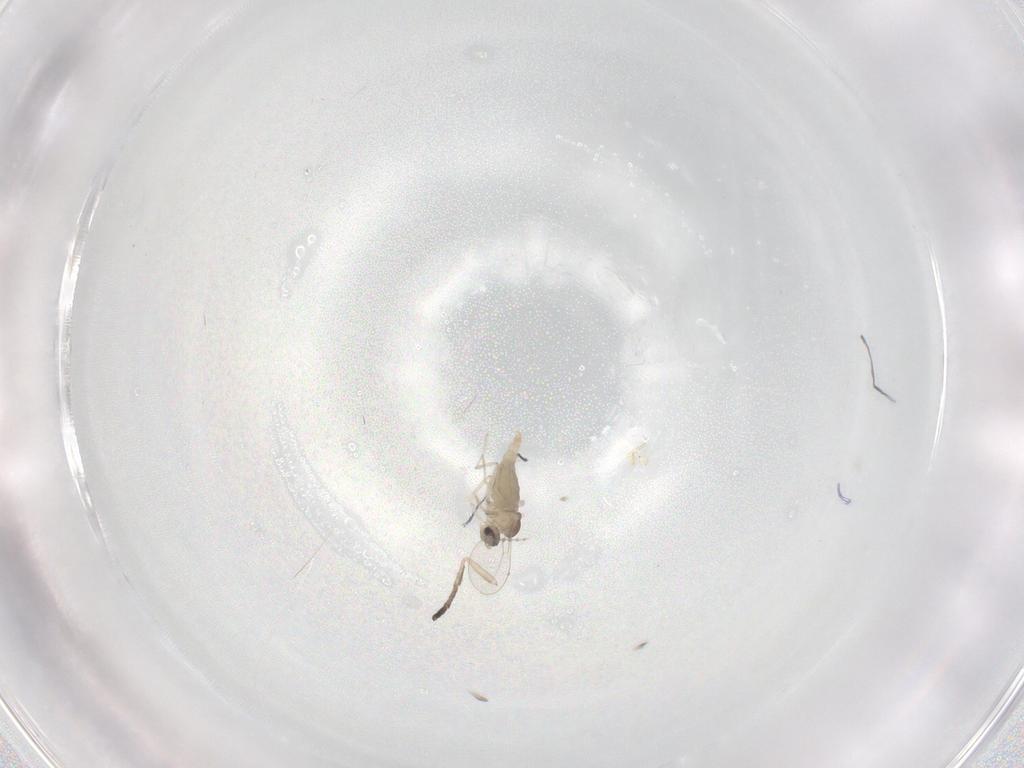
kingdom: Animalia
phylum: Arthropoda
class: Insecta
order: Diptera
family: Cecidomyiidae
